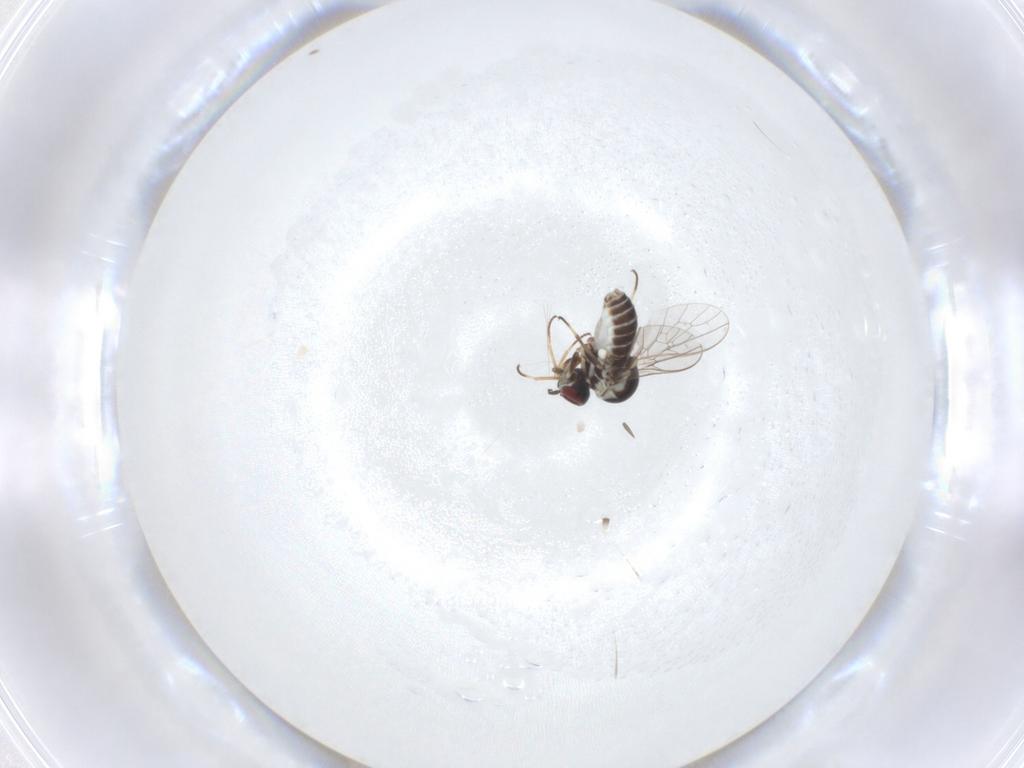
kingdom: Animalia
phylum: Arthropoda
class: Insecta
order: Diptera
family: Mythicomyiidae
